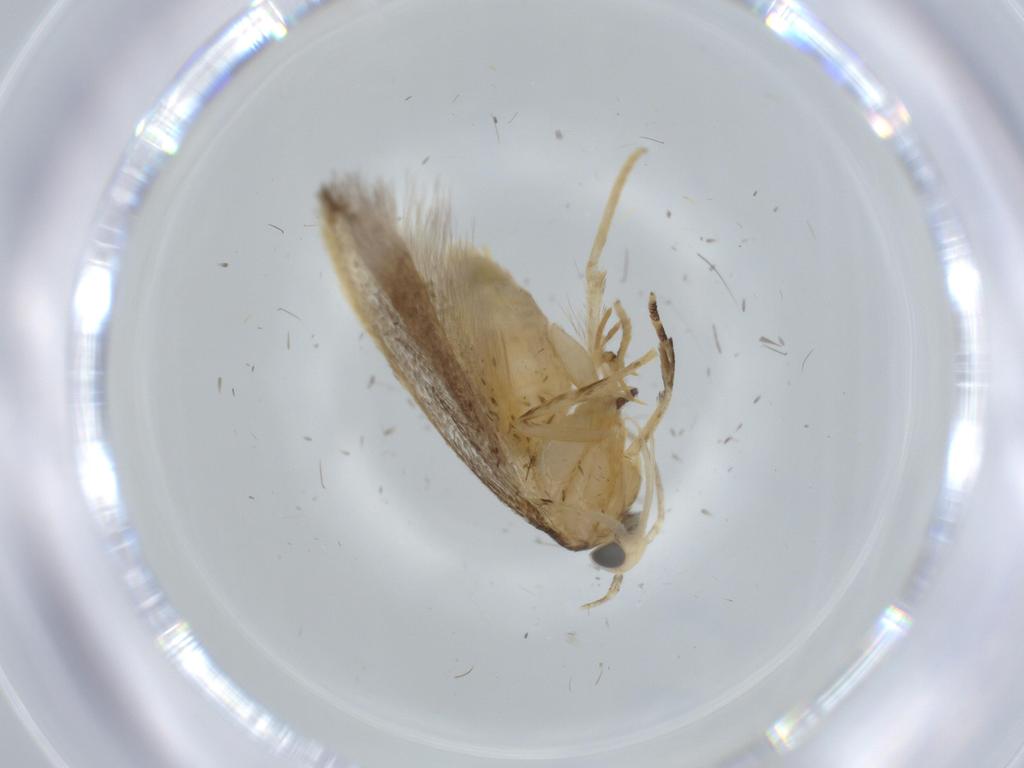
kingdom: Animalia
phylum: Arthropoda
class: Insecta
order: Lepidoptera
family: Autostichidae
